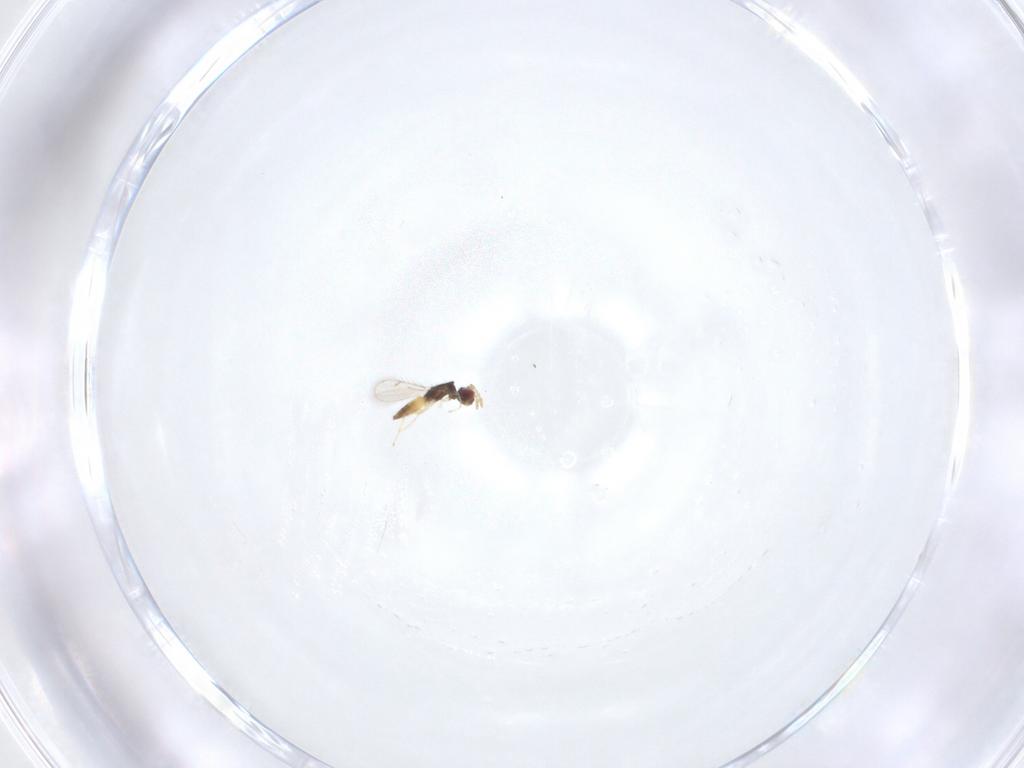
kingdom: Animalia
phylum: Arthropoda
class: Insecta
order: Hymenoptera
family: Eulophidae
